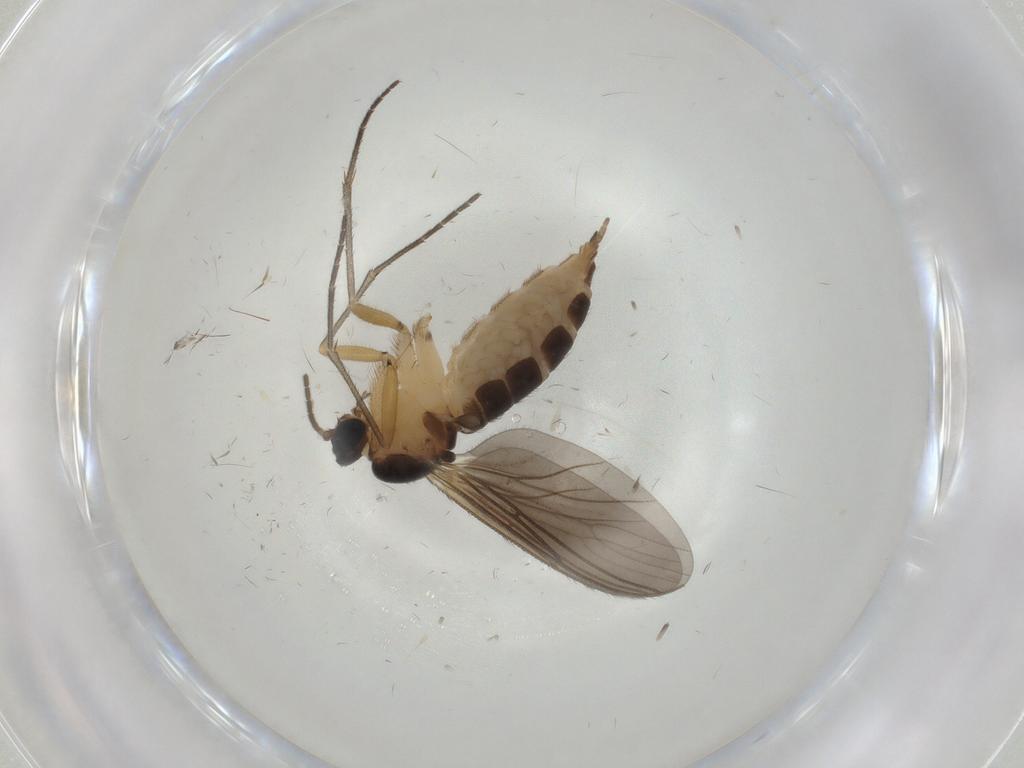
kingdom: Animalia
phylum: Arthropoda
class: Insecta
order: Diptera
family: Sciaridae
